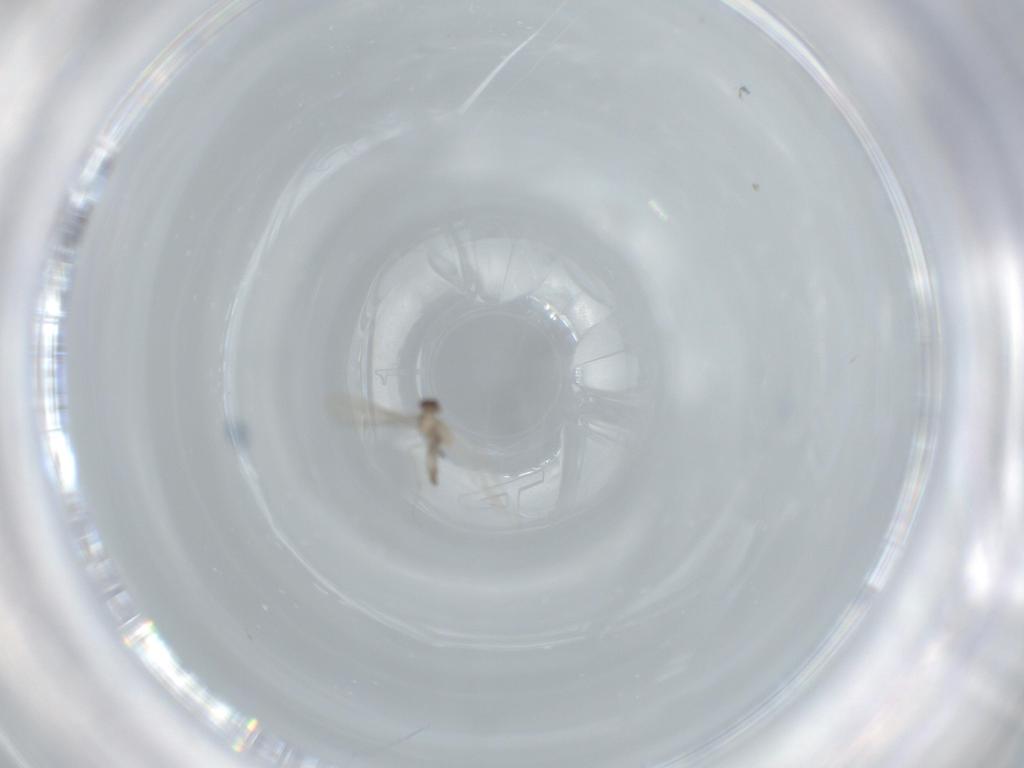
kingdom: Animalia
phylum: Arthropoda
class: Insecta
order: Diptera
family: Cecidomyiidae
